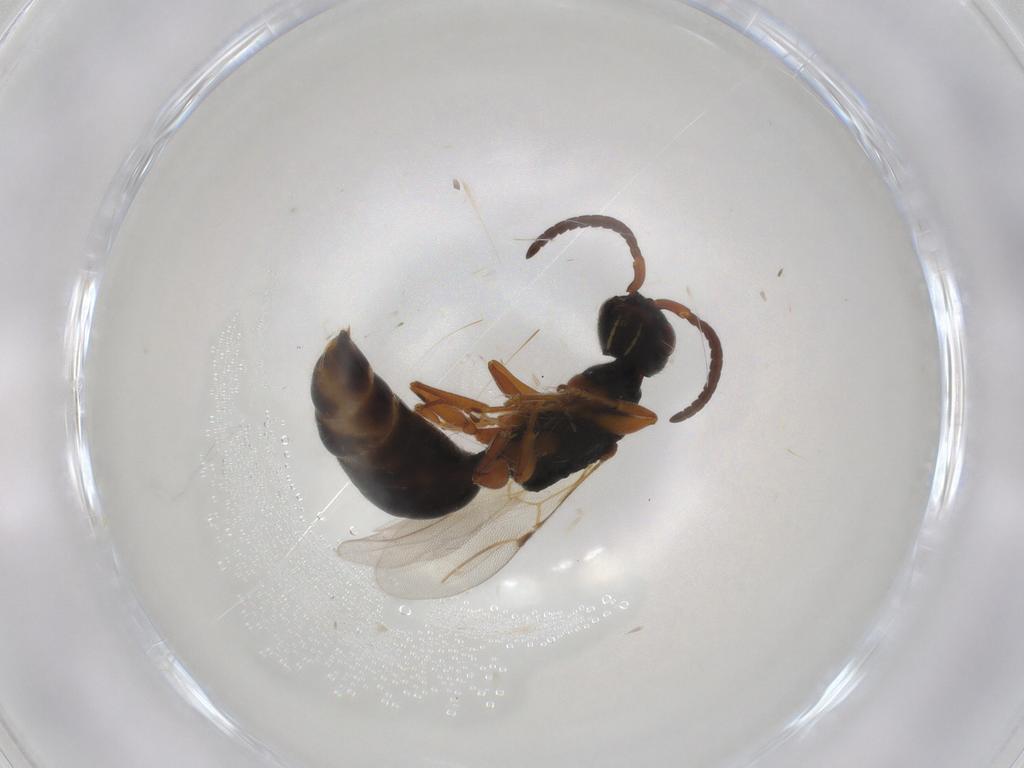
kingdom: Animalia
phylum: Arthropoda
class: Insecta
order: Hymenoptera
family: Bethylidae
